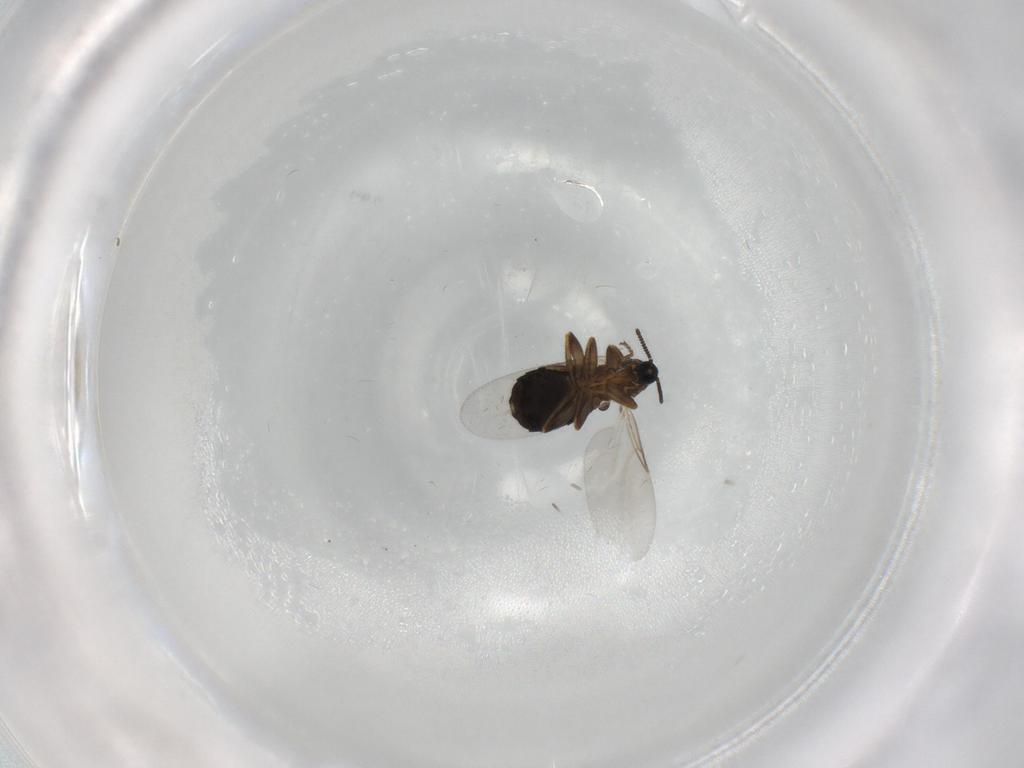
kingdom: Animalia
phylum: Arthropoda
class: Insecta
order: Diptera
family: Scatopsidae
